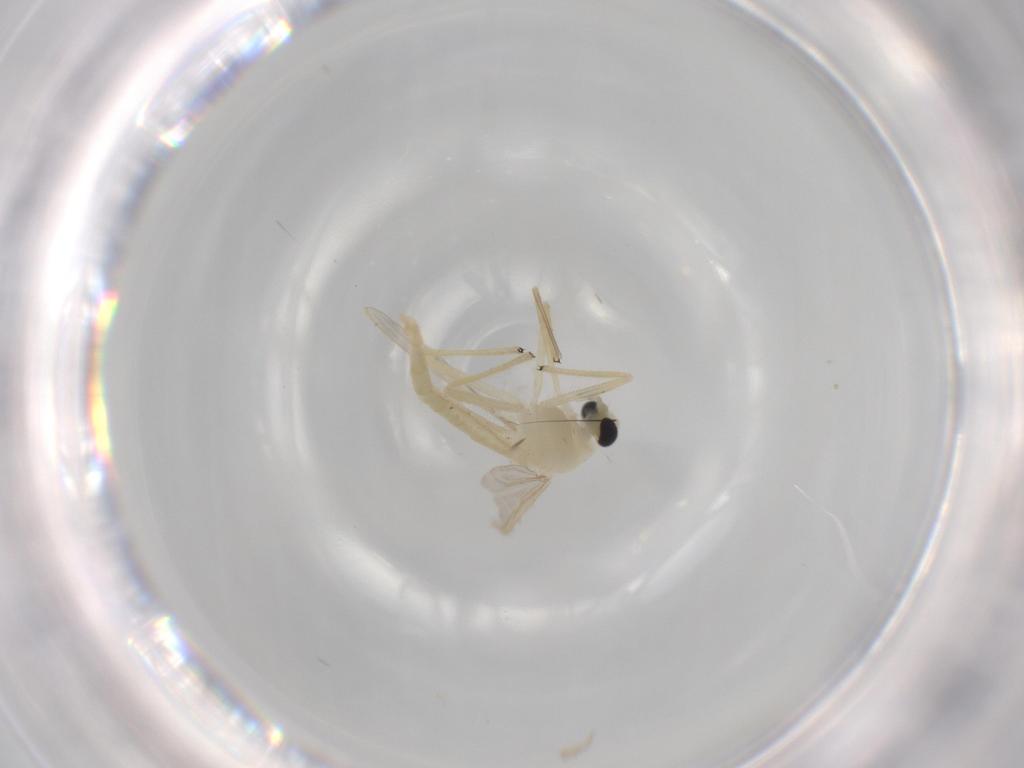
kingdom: Animalia
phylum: Arthropoda
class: Insecta
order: Diptera
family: Chironomidae
